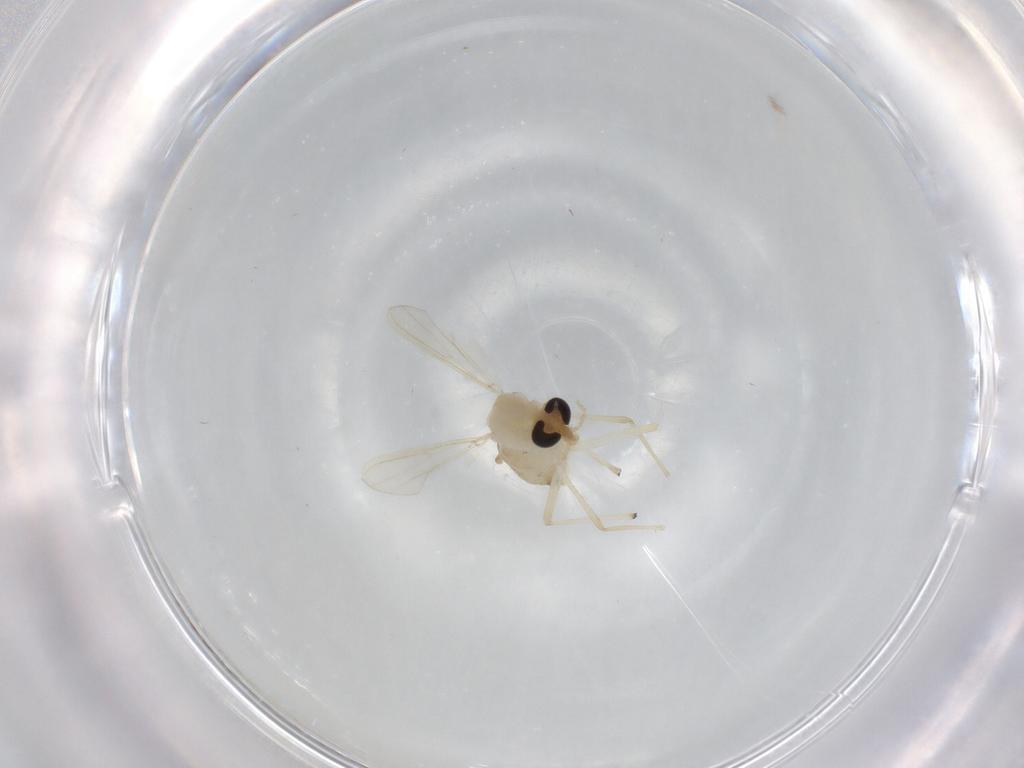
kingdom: Animalia
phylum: Arthropoda
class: Insecta
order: Diptera
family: Chironomidae
